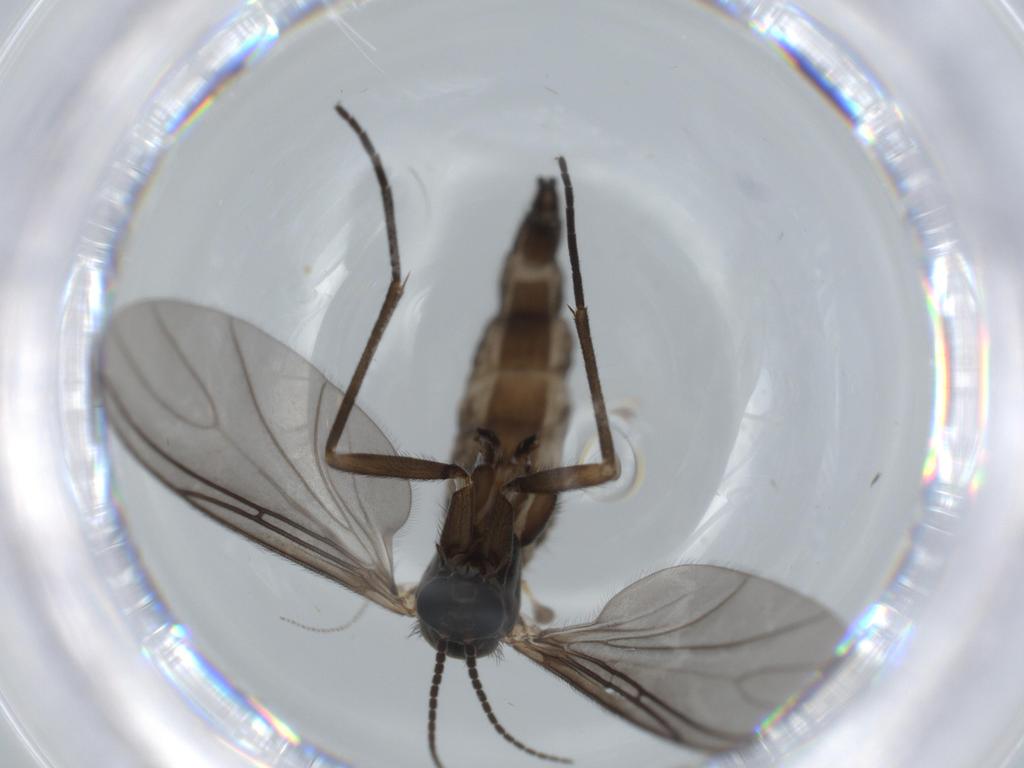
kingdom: Animalia
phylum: Arthropoda
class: Insecta
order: Diptera
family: Sciaridae
